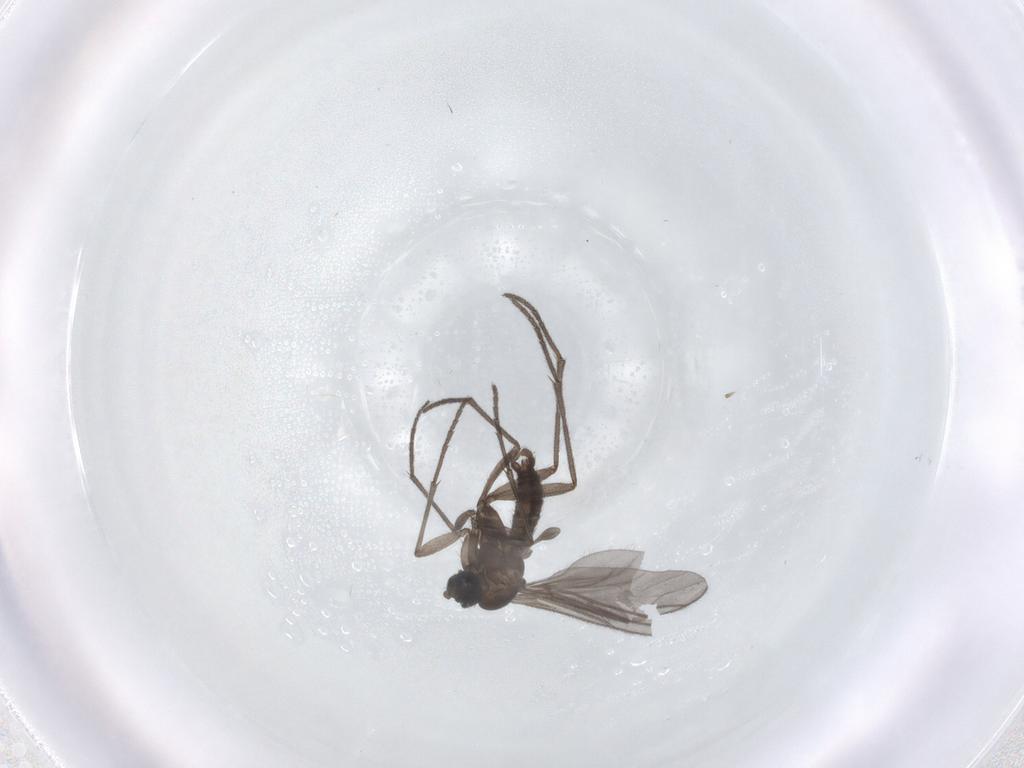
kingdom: Animalia
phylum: Arthropoda
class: Insecta
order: Diptera
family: Sciaridae
